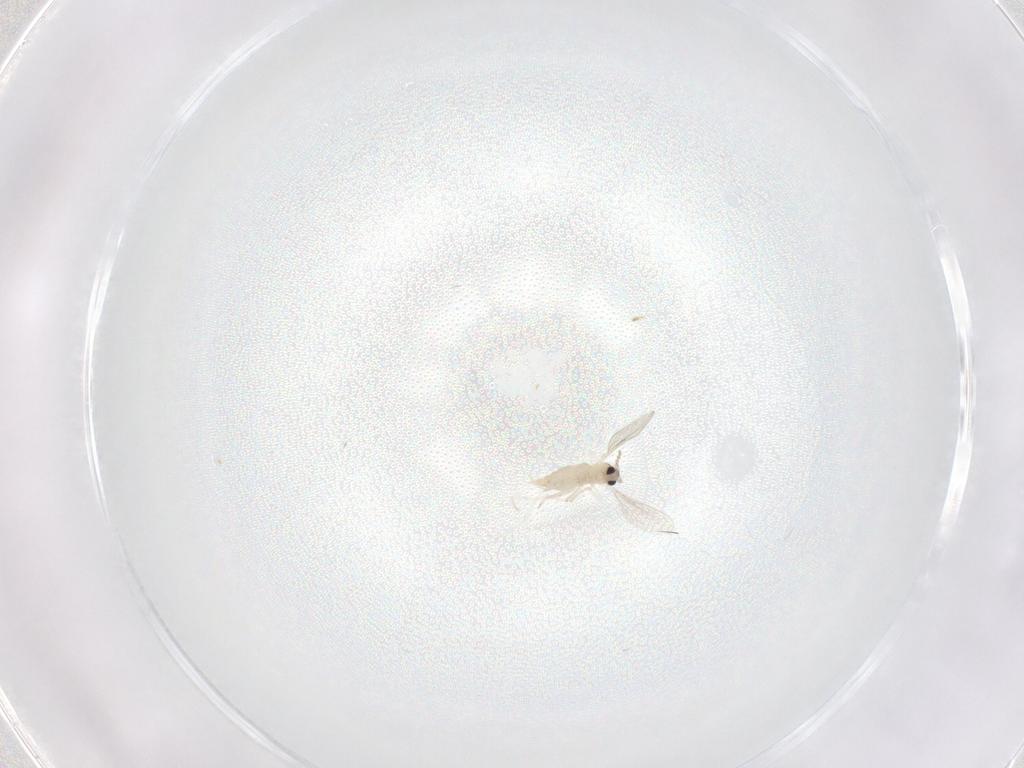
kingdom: Animalia
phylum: Arthropoda
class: Insecta
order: Diptera
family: Cecidomyiidae
